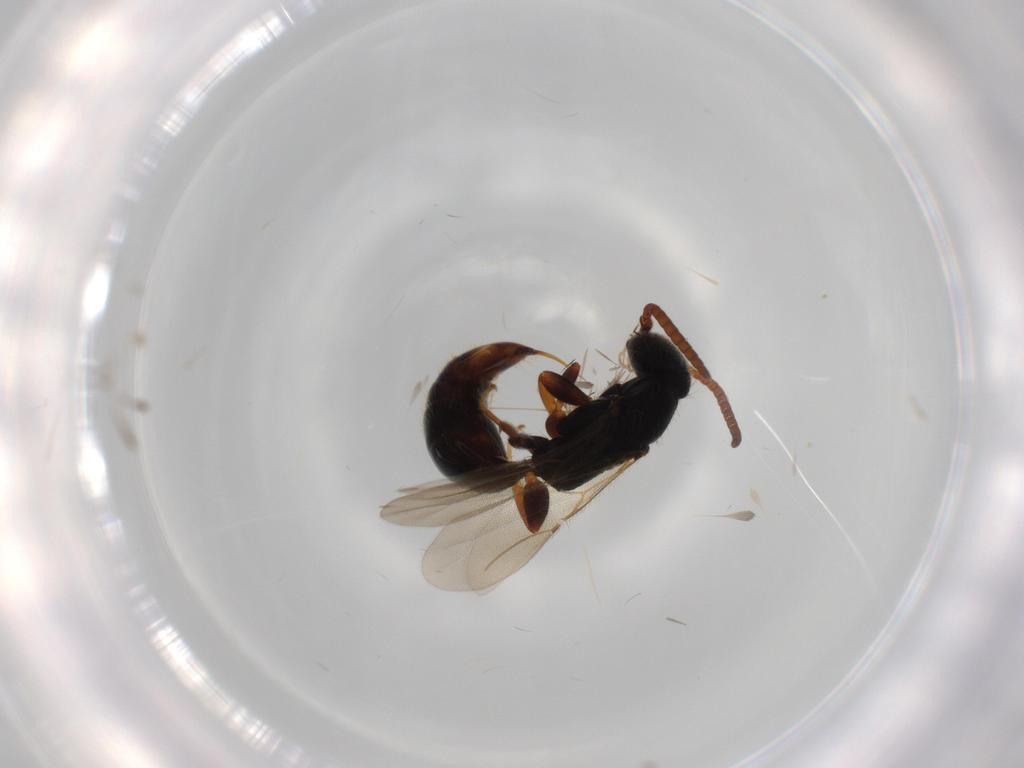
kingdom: Animalia
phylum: Arthropoda
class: Insecta
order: Hymenoptera
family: Bethylidae
